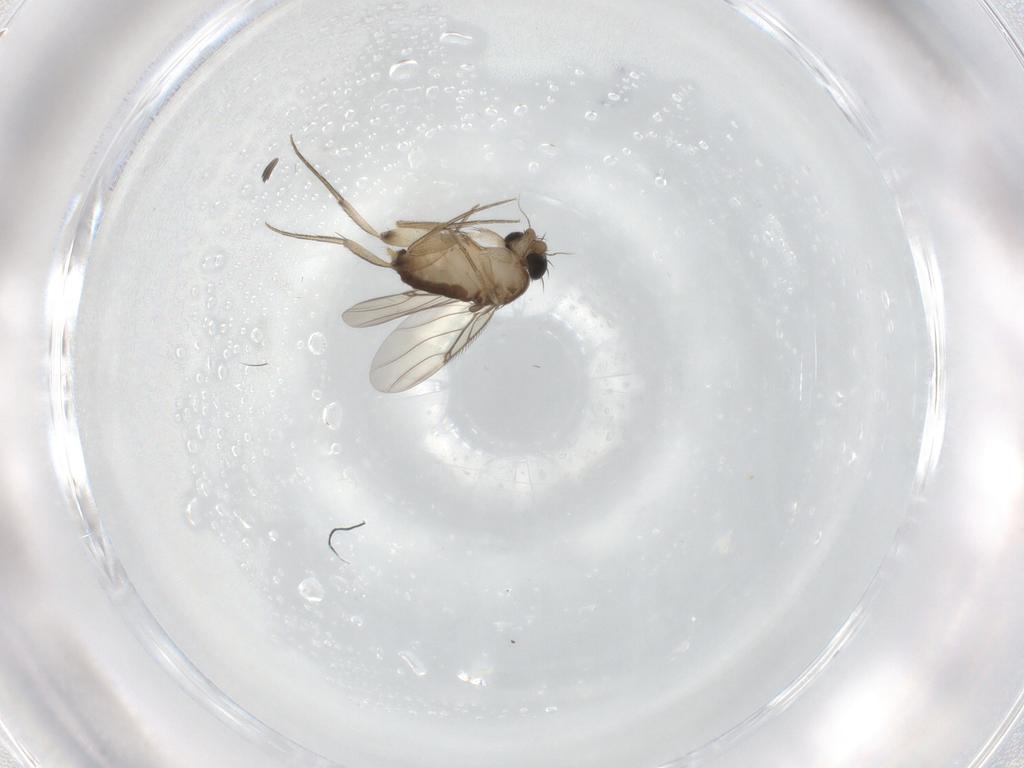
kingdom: Animalia
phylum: Arthropoda
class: Insecta
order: Diptera
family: Phoridae
